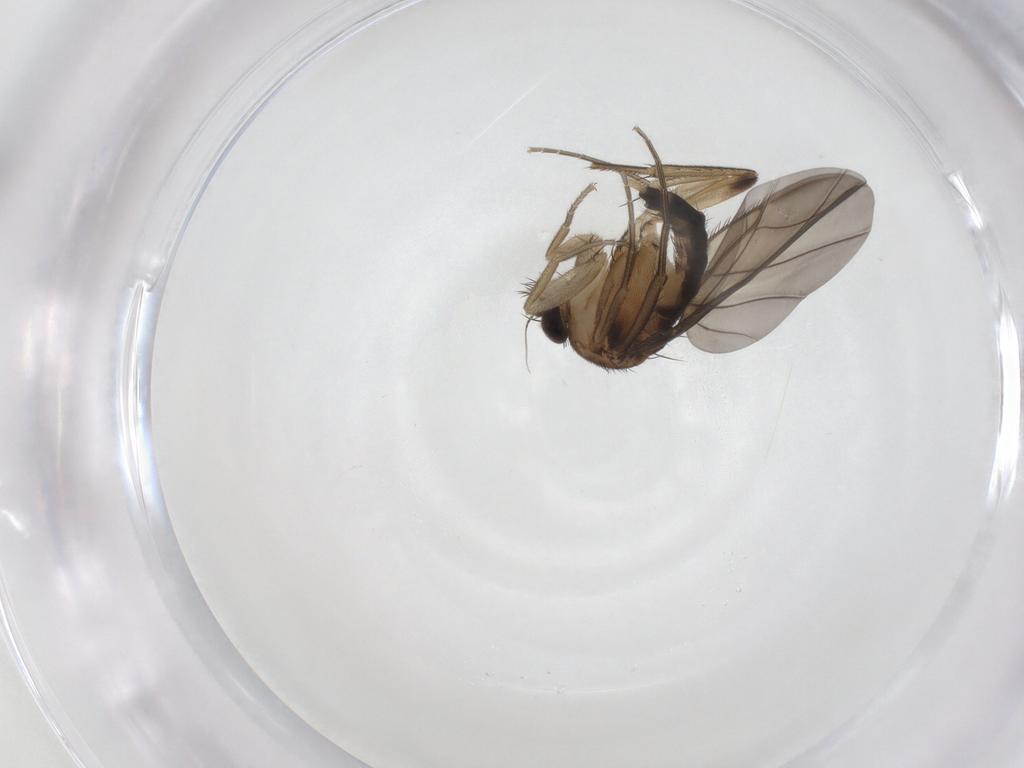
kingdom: Animalia
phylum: Arthropoda
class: Insecta
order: Diptera
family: Phoridae
